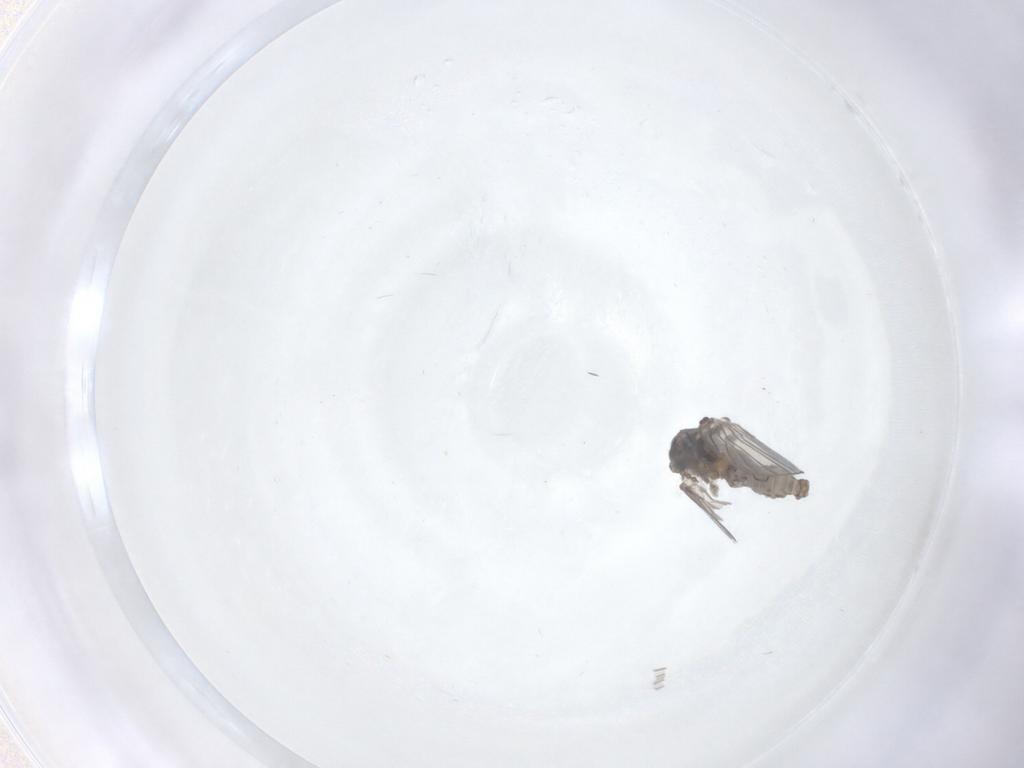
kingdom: Animalia
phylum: Arthropoda
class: Insecta
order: Diptera
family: Psychodidae
